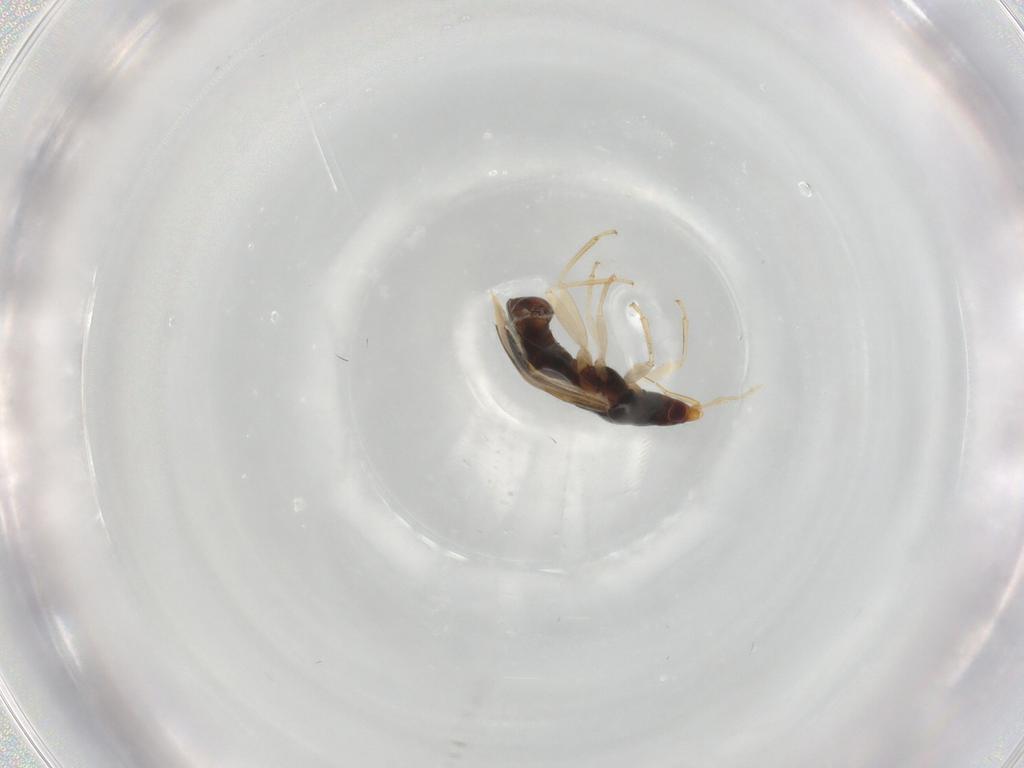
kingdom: Animalia
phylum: Arthropoda
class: Insecta
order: Hemiptera
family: Anthocoridae
